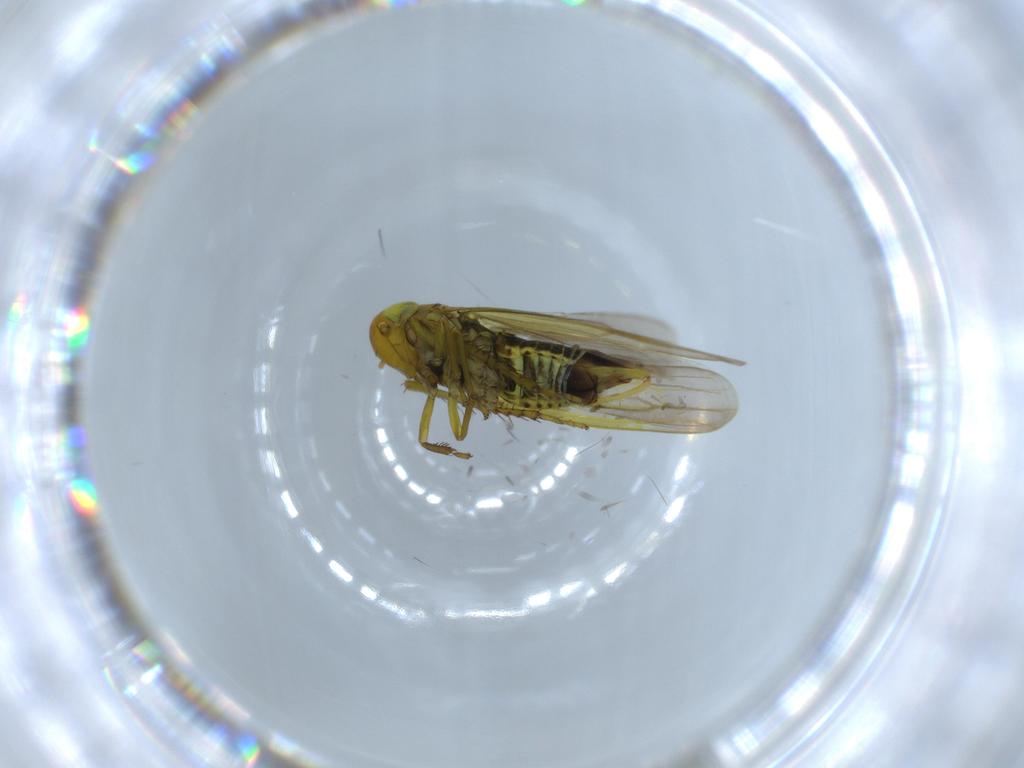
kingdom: Animalia
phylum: Arthropoda
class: Insecta
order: Hemiptera
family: Cicadellidae
